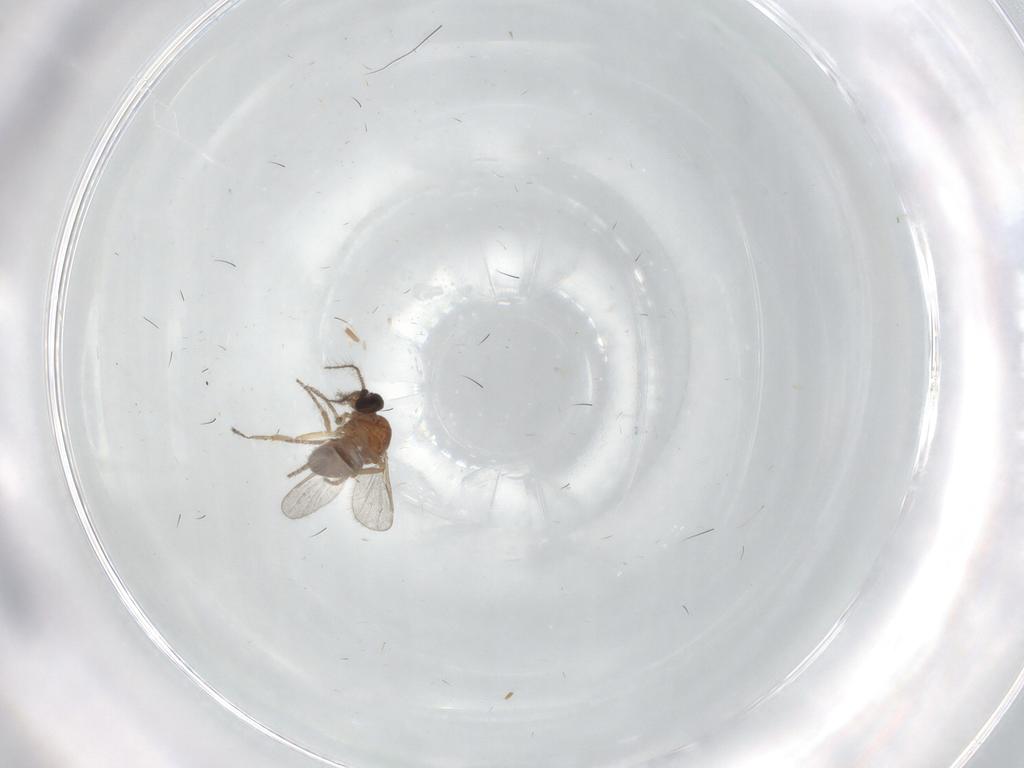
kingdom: Animalia
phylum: Arthropoda
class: Insecta
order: Diptera
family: Ceratopogonidae
